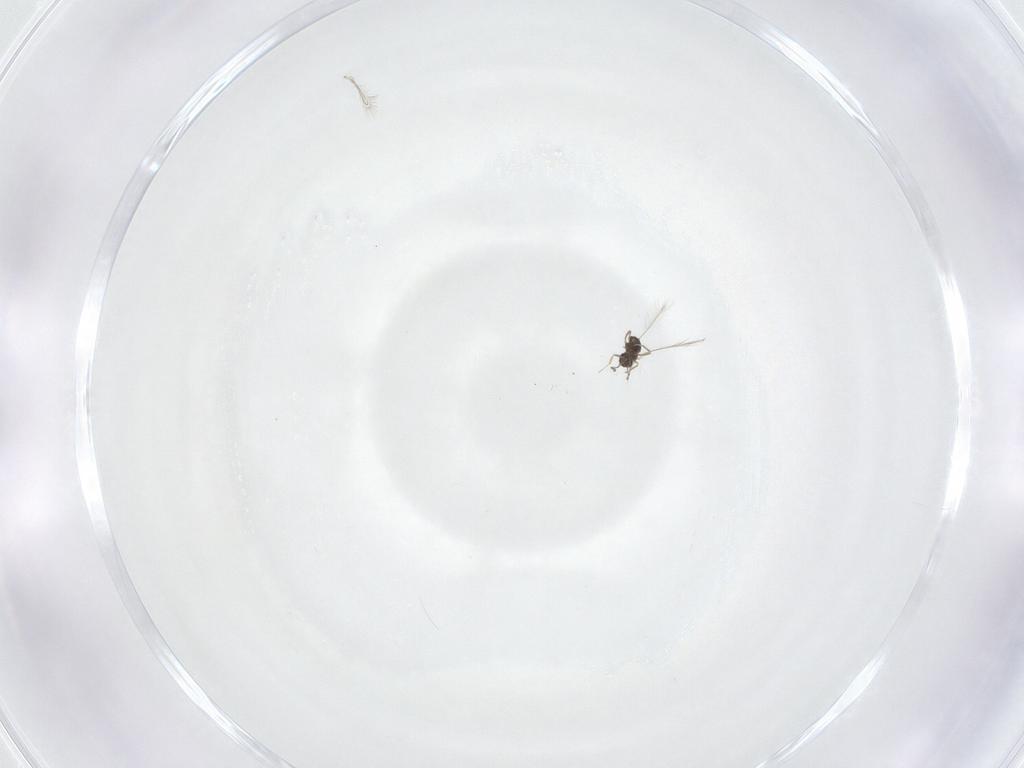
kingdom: Animalia
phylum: Arthropoda
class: Insecta
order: Hymenoptera
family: Mymaridae
